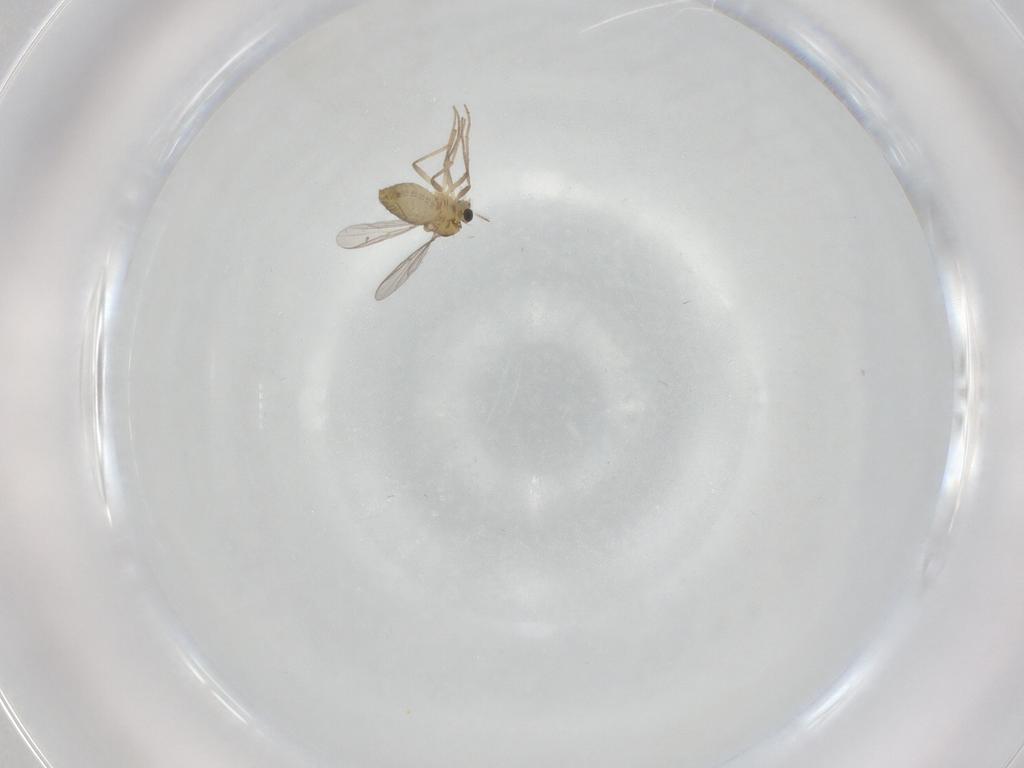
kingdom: Animalia
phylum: Arthropoda
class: Insecta
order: Diptera
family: Chironomidae
